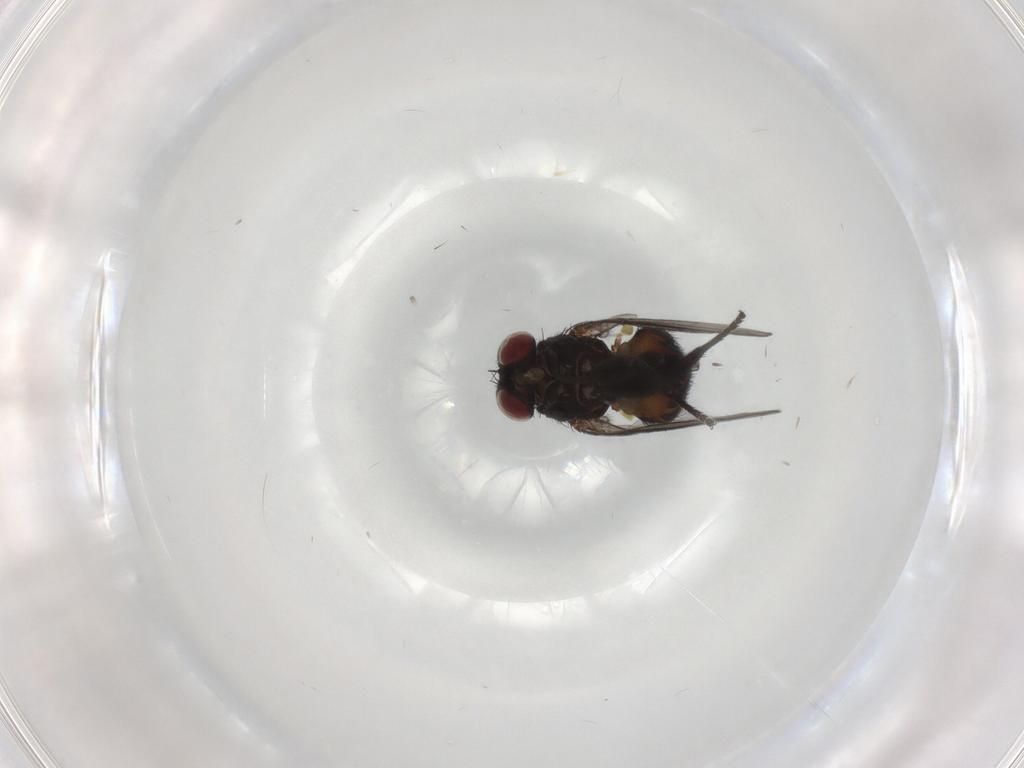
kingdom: Animalia
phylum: Arthropoda
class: Insecta
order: Diptera
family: Agromyzidae
